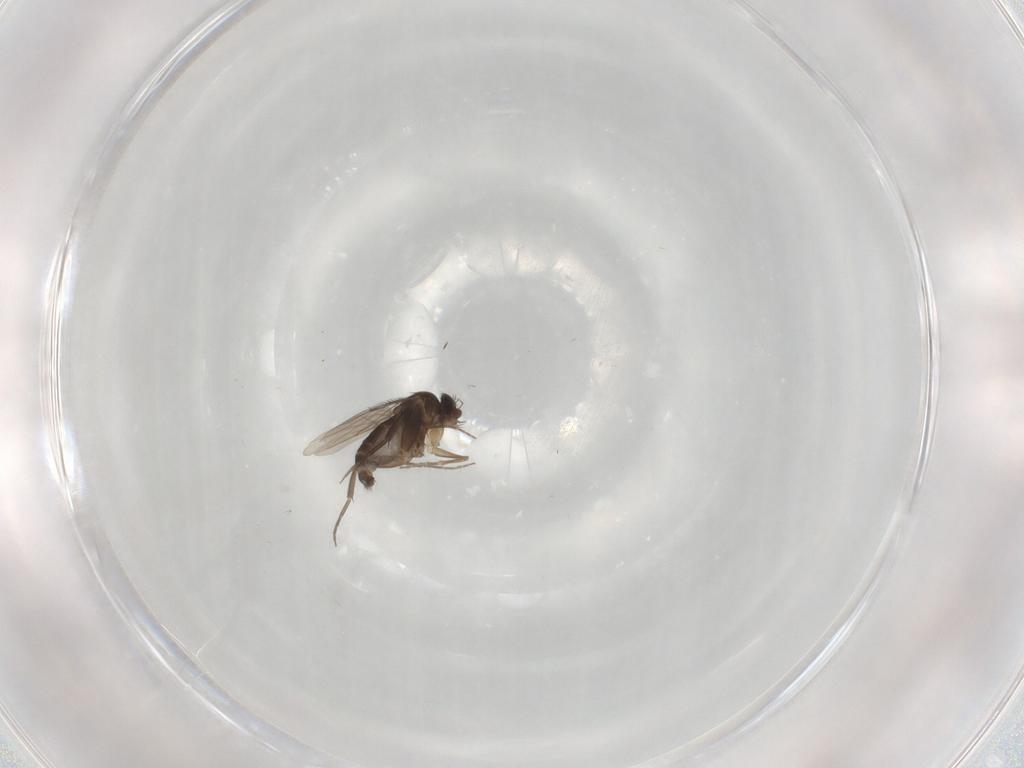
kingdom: Animalia
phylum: Arthropoda
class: Insecta
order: Diptera
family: Phoridae
